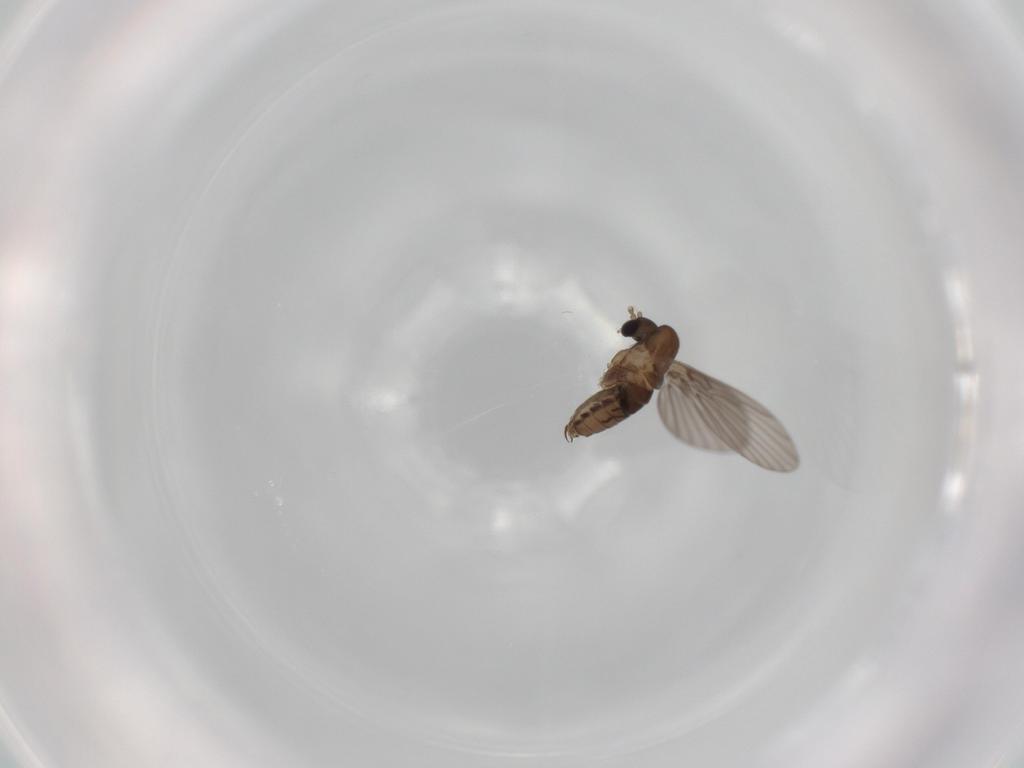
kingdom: Animalia
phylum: Arthropoda
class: Insecta
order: Diptera
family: Psychodidae
